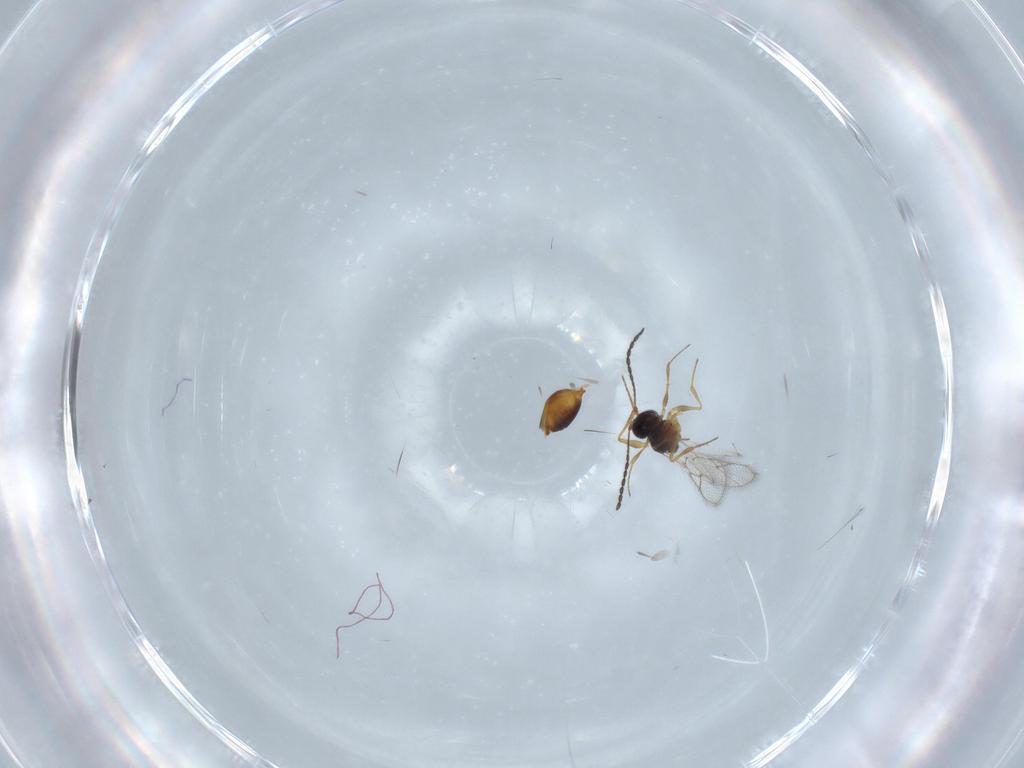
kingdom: Animalia
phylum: Arthropoda
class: Insecta
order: Hymenoptera
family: Figitidae
